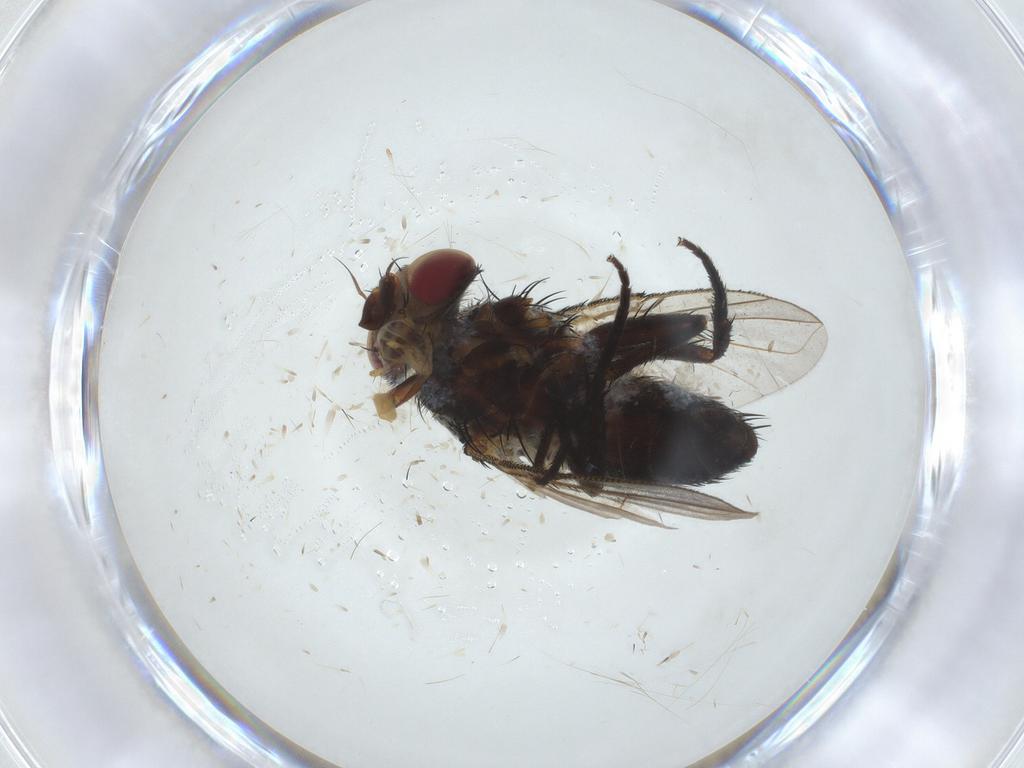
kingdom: Animalia
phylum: Arthropoda
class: Insecta
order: Diptera
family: Tachinidae
